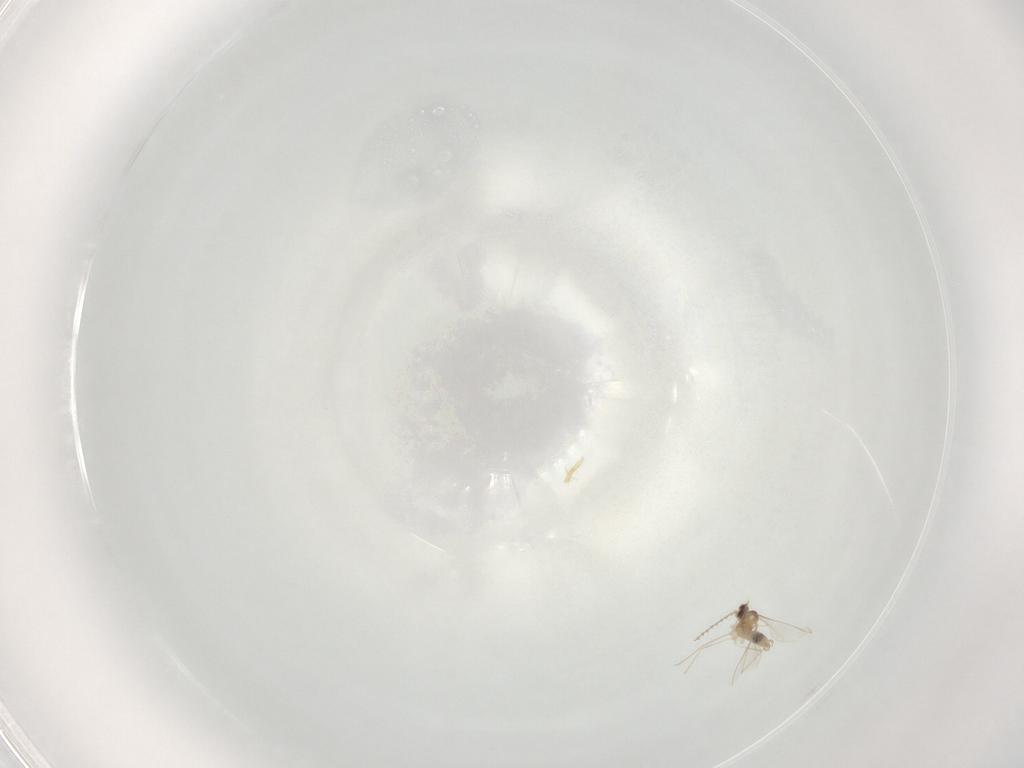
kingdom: Animalia
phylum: Arthropoda
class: Insecta
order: Diptera
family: Cecidomyiidae
